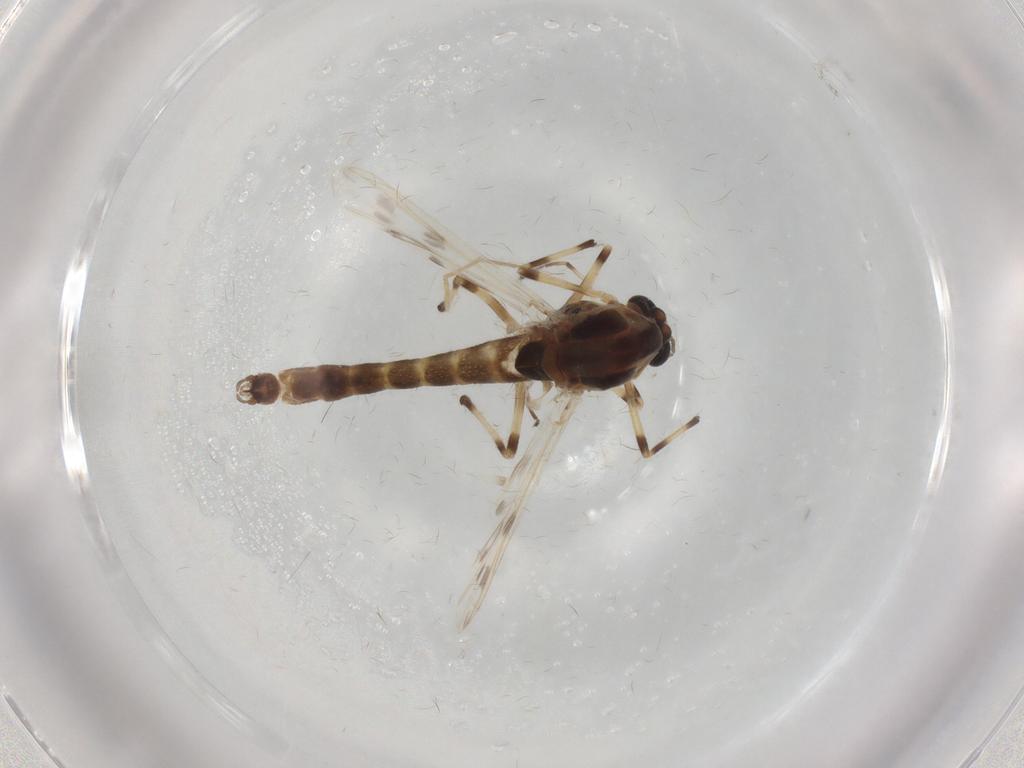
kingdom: Animalia
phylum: Arthropoda
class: Insecta
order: Diptera
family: Chironomidae
